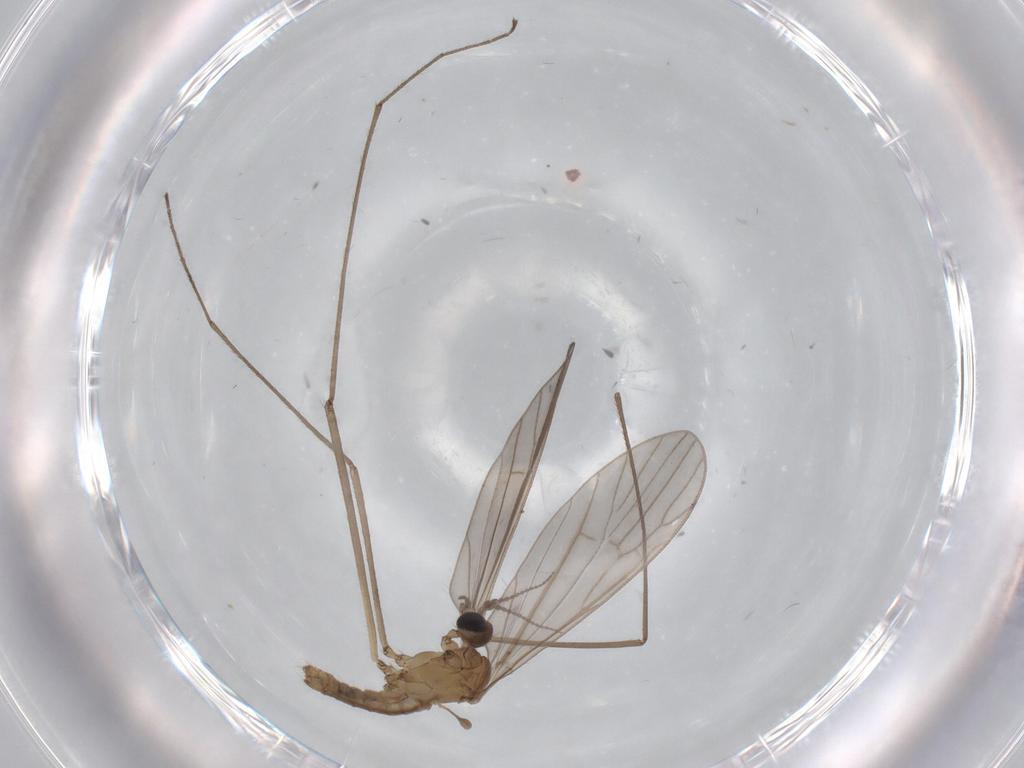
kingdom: Animalia
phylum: Arthropoda
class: Insecta
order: Diptera
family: Limoniidae
